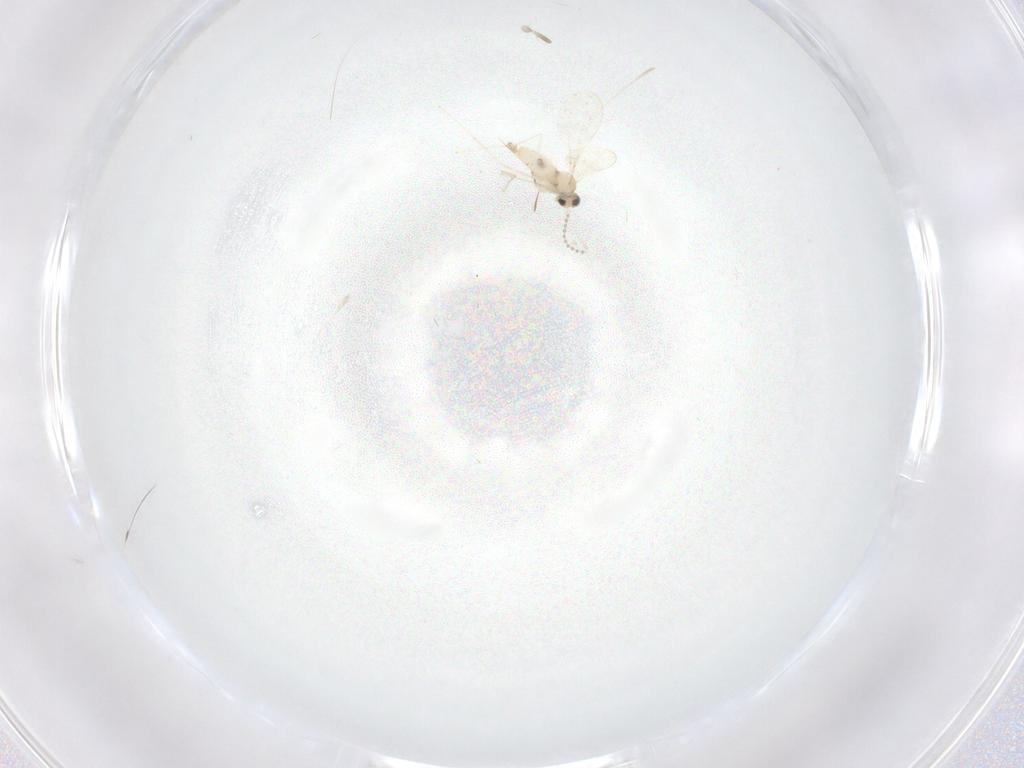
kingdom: Animalia
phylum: Arthropoda
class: Insecta
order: Diptera
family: Cecidomyiidae
